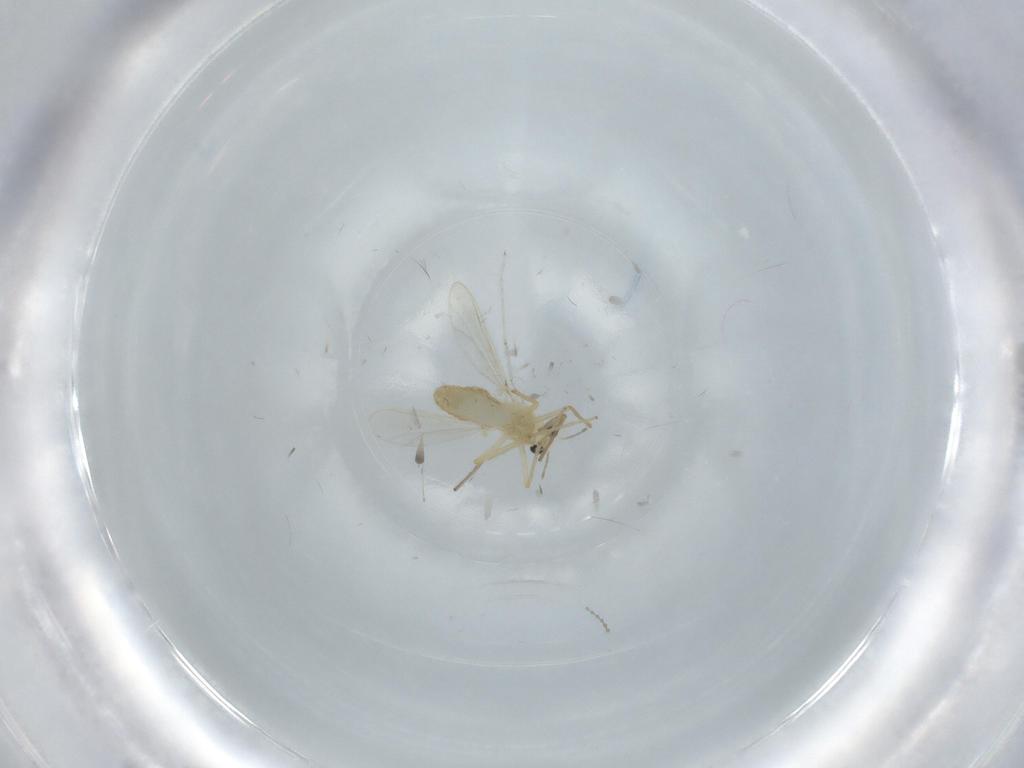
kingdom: Animalia
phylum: Arthropoda
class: Insecta
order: Diptera
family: Chironomidae
